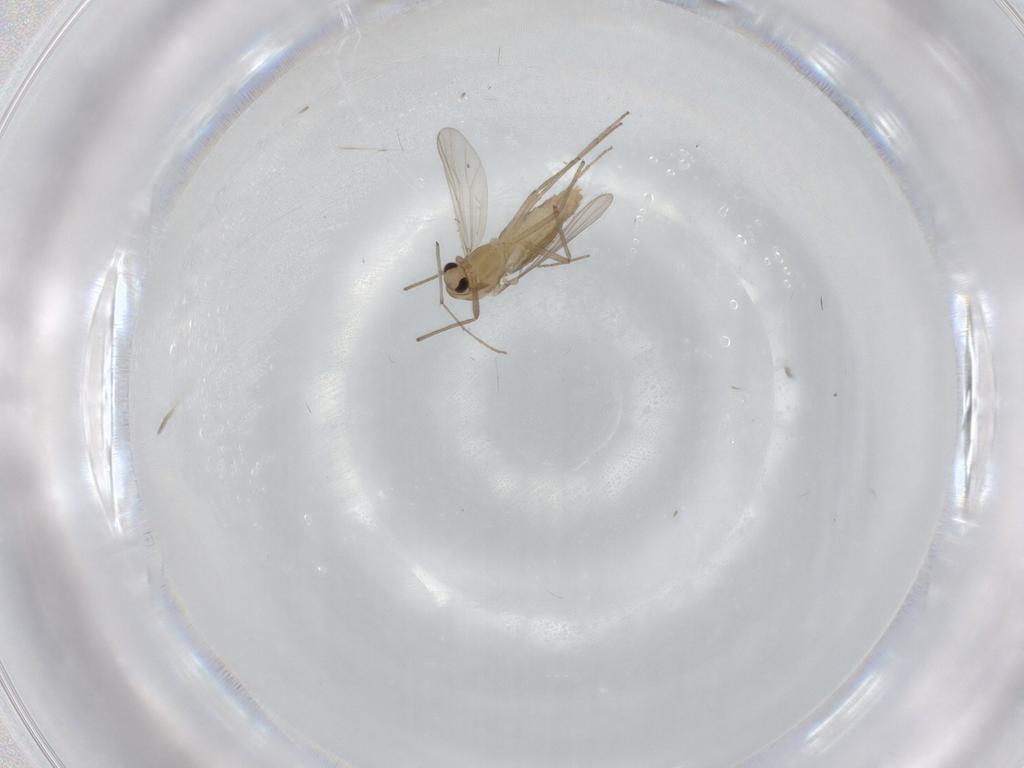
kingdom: Animalia
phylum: Arthropoda
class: Insecta
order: Diptera
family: Chironomidae
